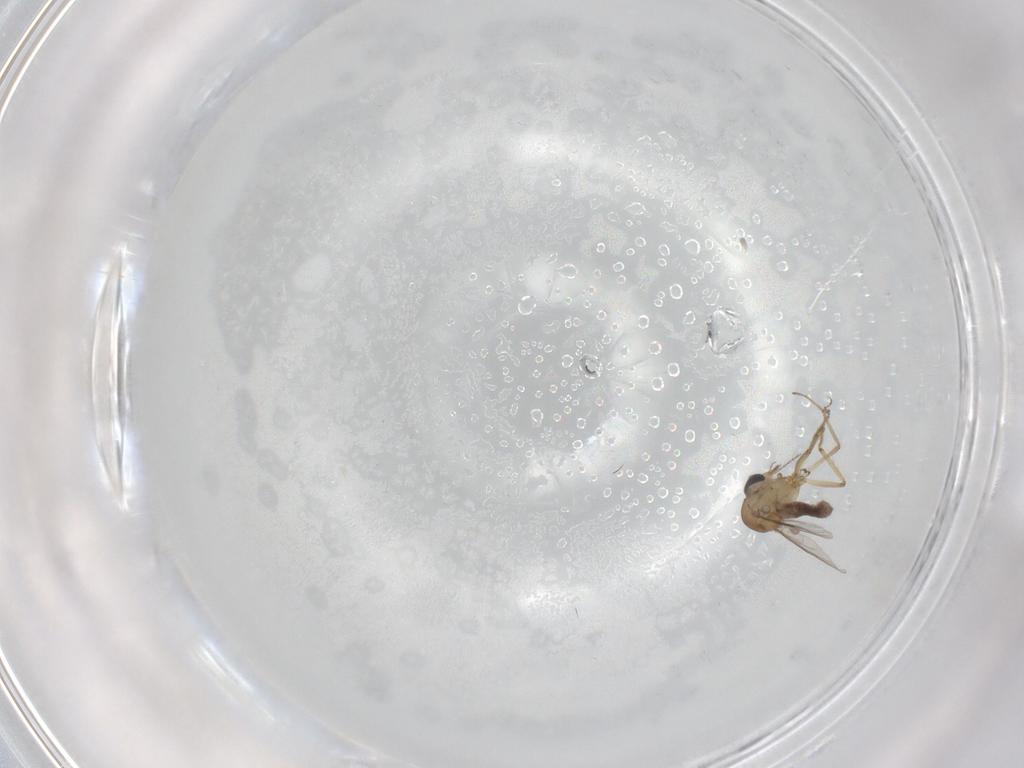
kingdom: Animalia
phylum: Arthropoda
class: Insecta
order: Diptera
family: Ceratopogonidae
